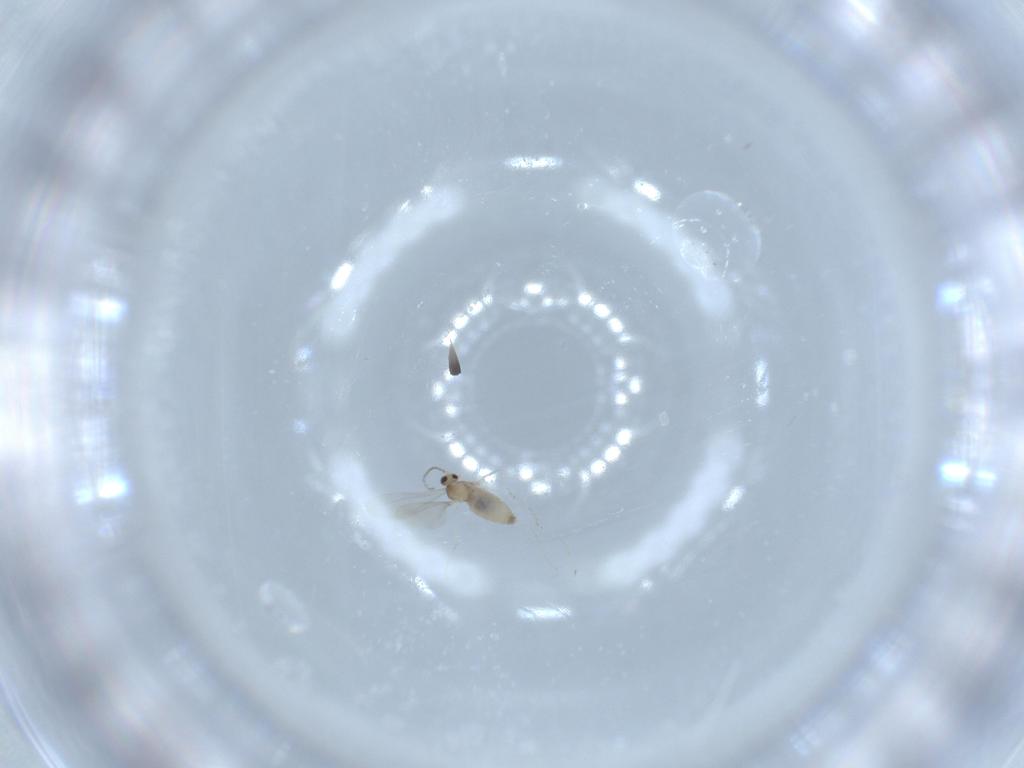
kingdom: Animalia
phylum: Arthropoda
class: Insecta
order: Diptera
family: Cecidomyiidae
